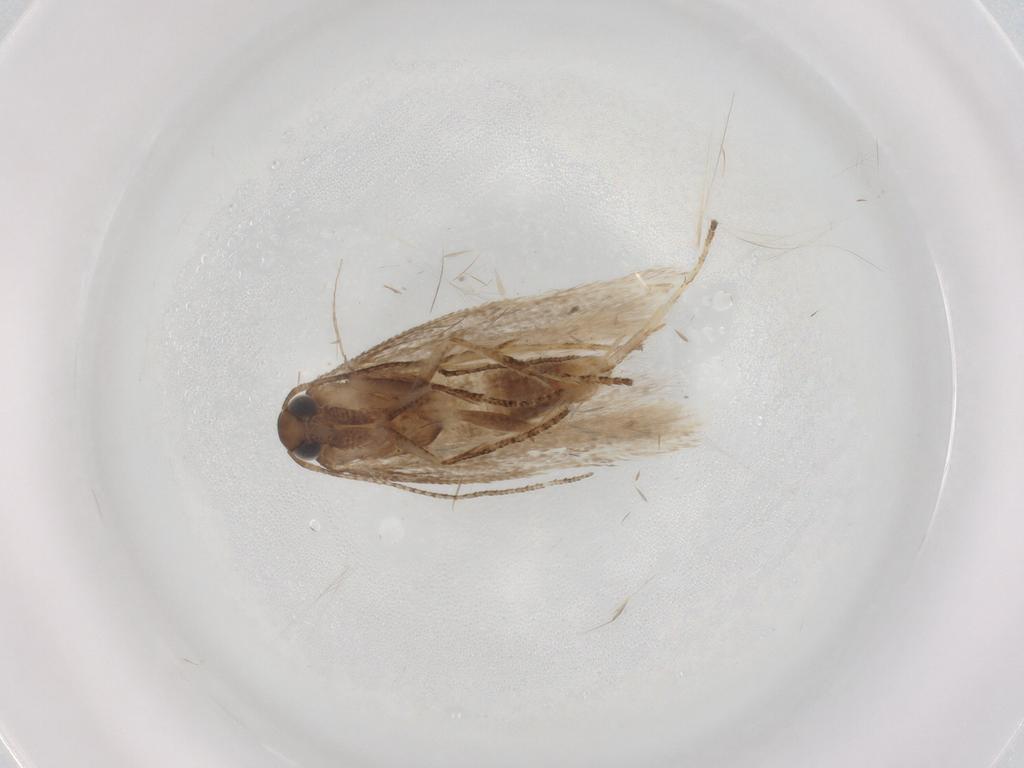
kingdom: Animalia
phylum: Arthropoda
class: Insecta
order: Lepidoptera
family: Gelechiidae
